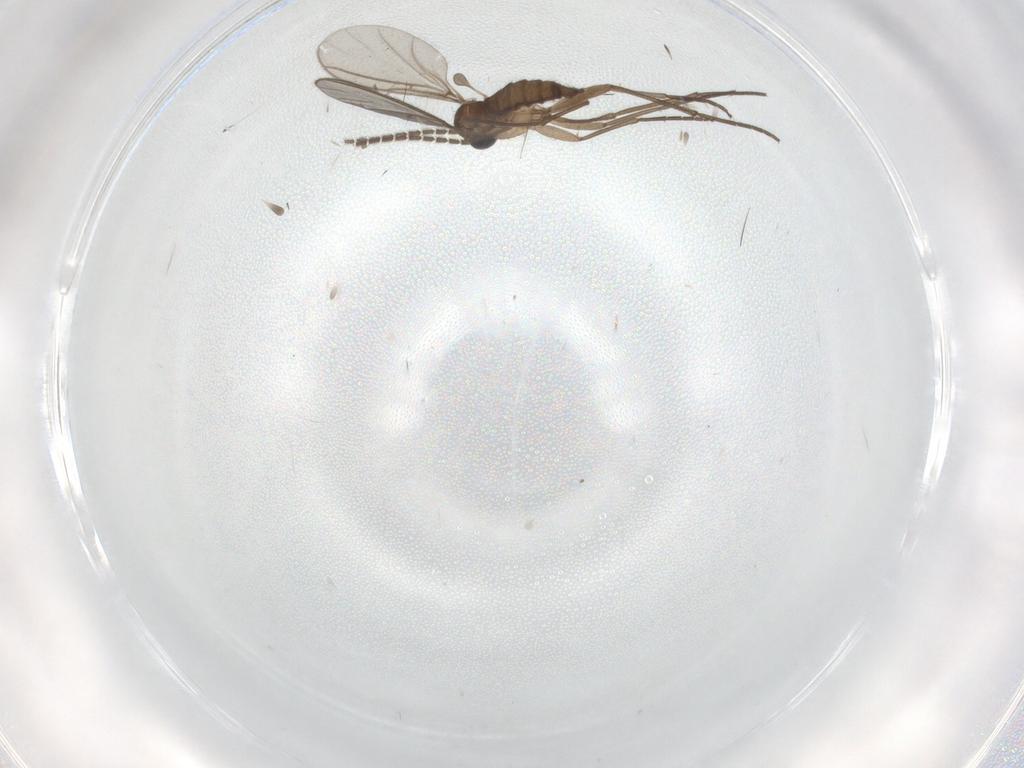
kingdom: Animalia
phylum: Arthropoda
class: Insecta
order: Diptera
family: Sciaridae
